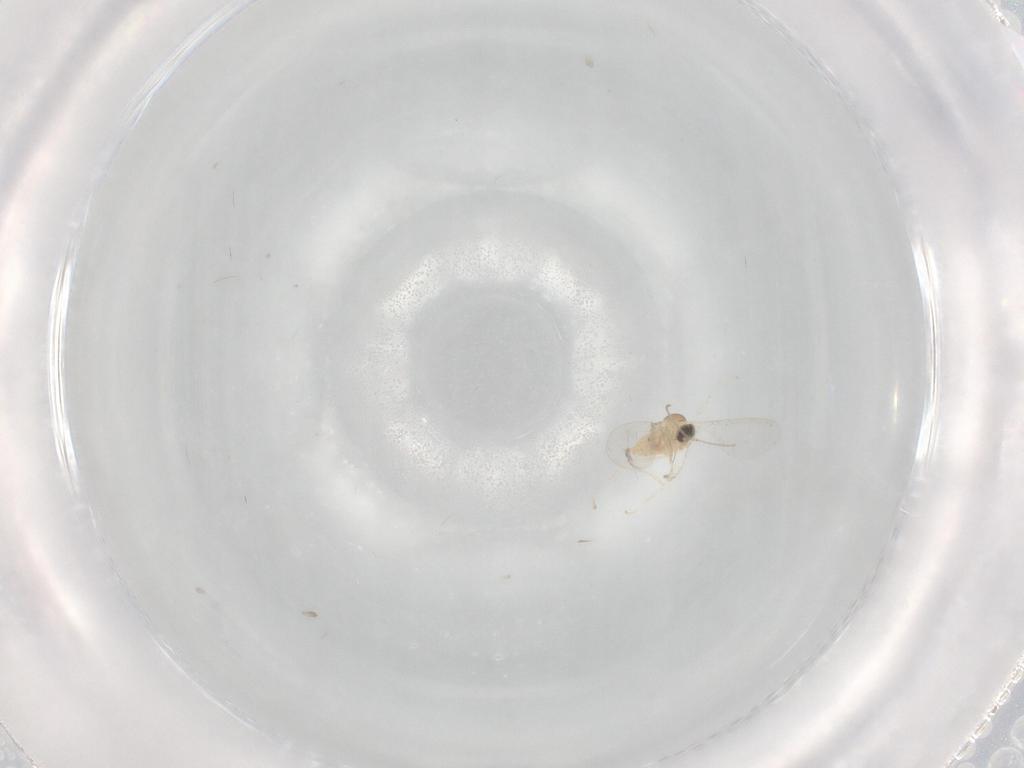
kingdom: Animalia
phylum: Arthropoda
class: Insecta
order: Diptera
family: Cecidomyiidae
